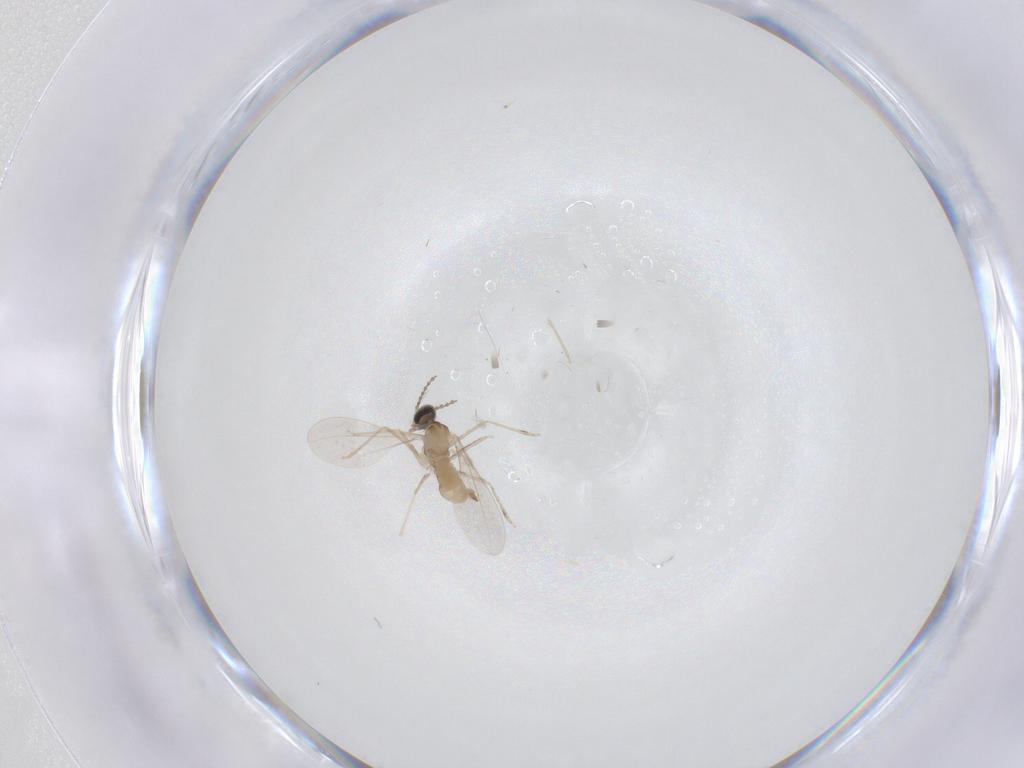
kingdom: Animalia
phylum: Arthropoda
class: Insecta
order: Diptera
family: Cecidomyiidae
